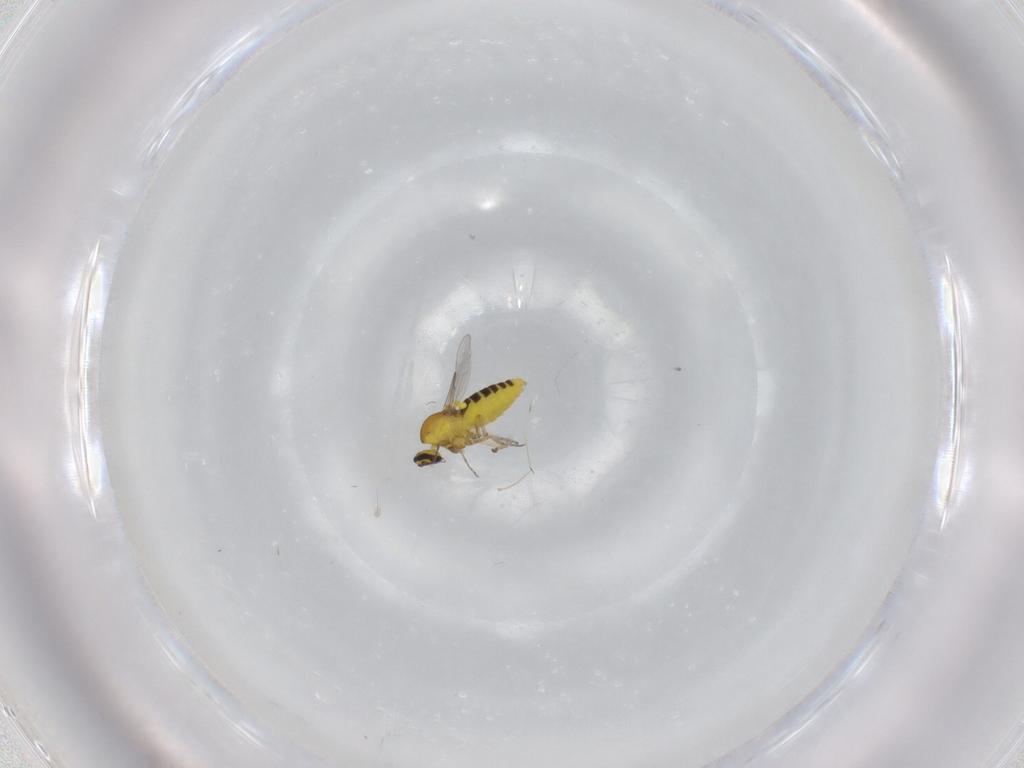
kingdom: Animalia
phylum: Arthropoda
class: Insecta
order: Diptera
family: Ceratopogonidae
